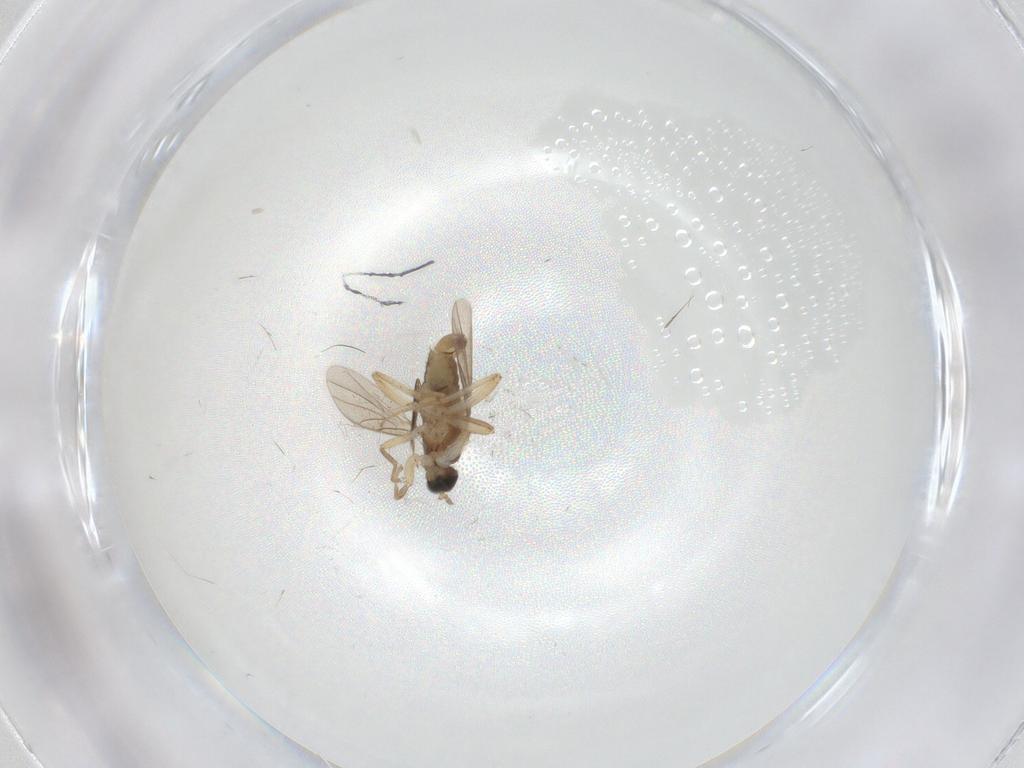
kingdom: Animalia
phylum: Arthropoda
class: Insecta
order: Diptera
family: Hybotidae
